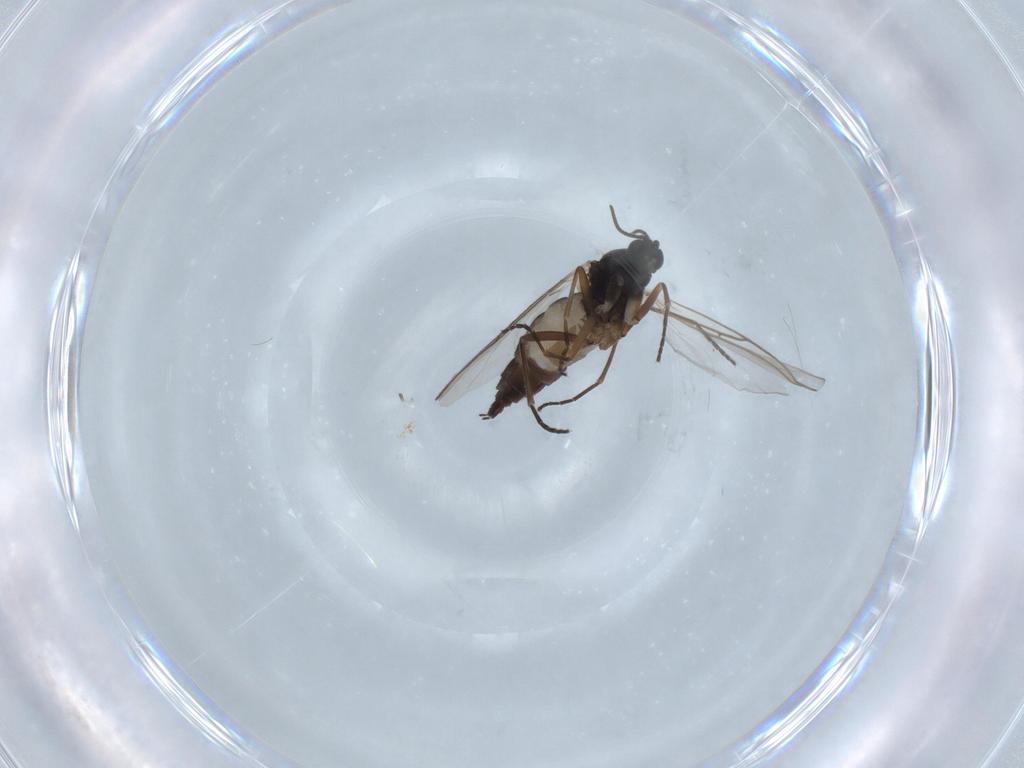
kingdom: Animalia
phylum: Arthropoda
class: Insecta
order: Diptera
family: Sciaridae
